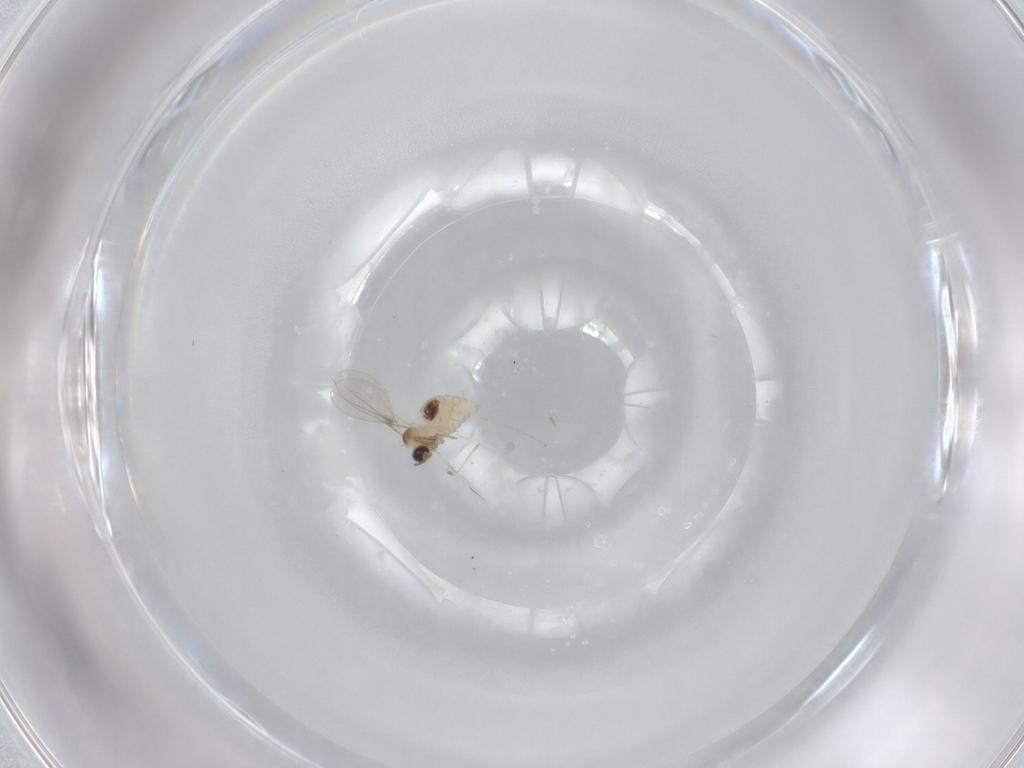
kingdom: Animalia
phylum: Arthropoda
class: Insecta
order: Diptera
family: Cecidomyiidae
